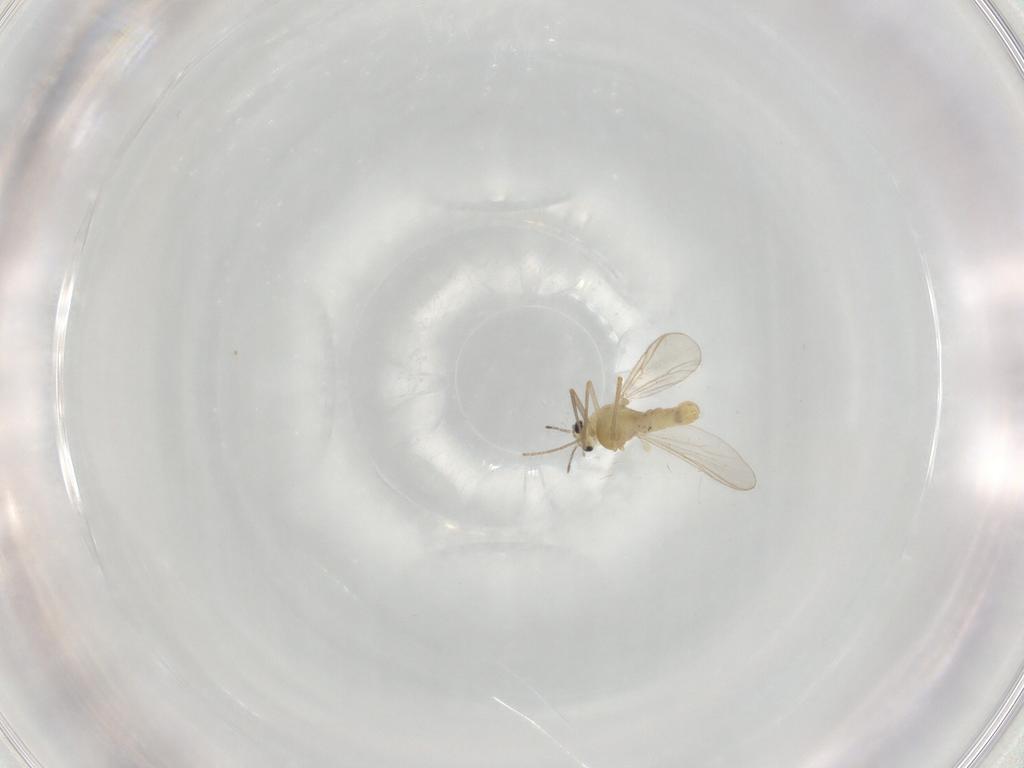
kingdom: Animalia
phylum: Arthropoda
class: Insecta
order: Diptera
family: Chironomidae
